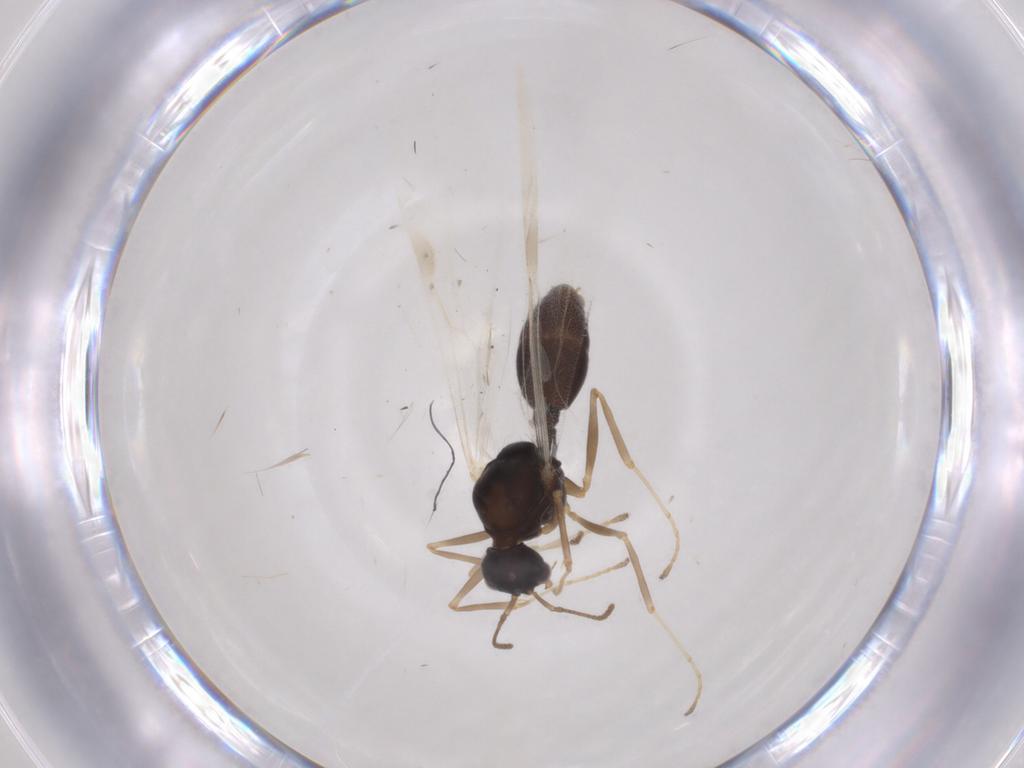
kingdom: Animalia
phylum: Arthropoda
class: Insecta
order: Hymenoptera
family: Formicidae
